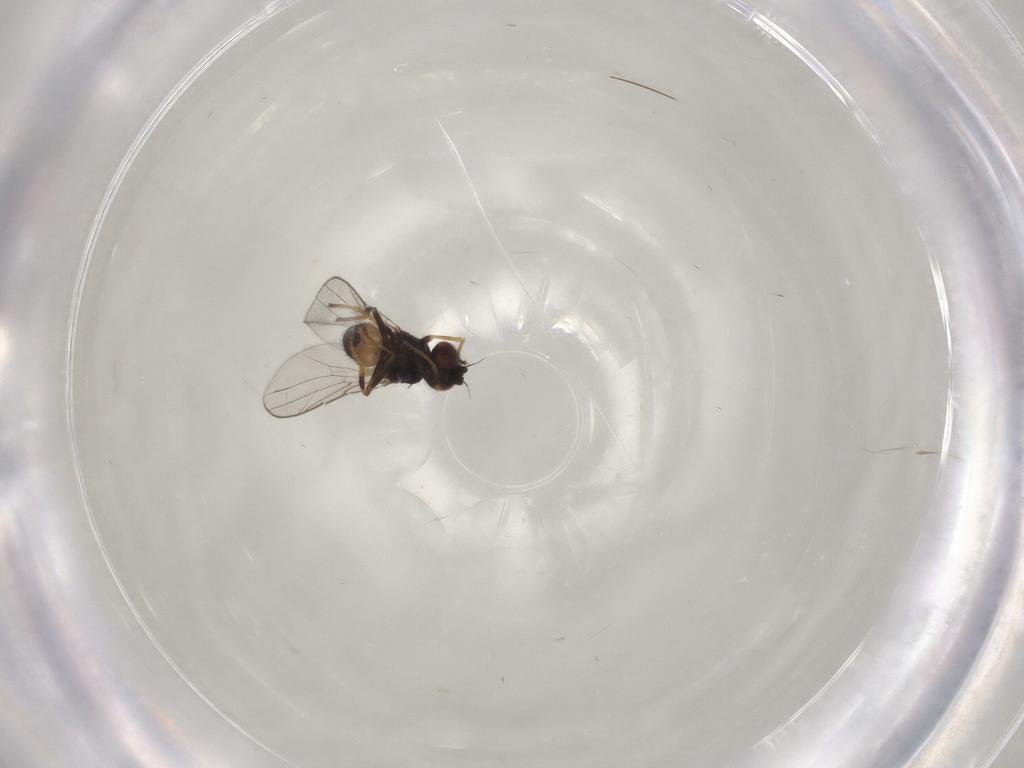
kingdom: Animalia
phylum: Arthropoda
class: Insecta
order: Diptera
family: Chloropidae
